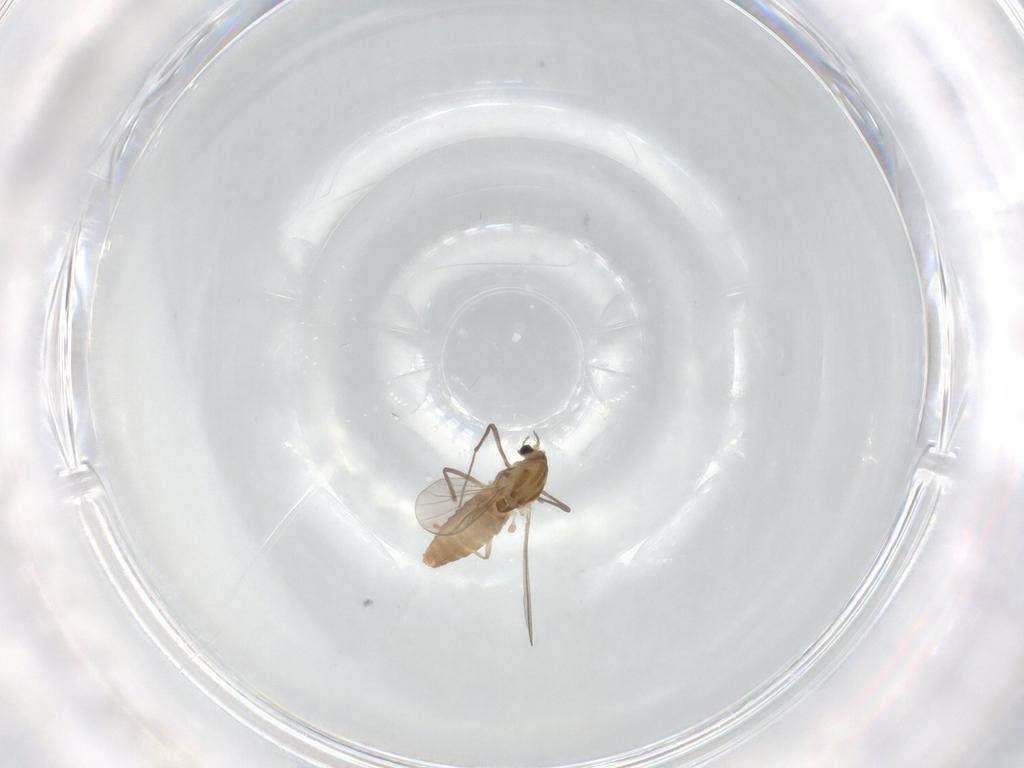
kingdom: Animalia
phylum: Arthropoda
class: Insecta
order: Diptera
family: Chironomidae
